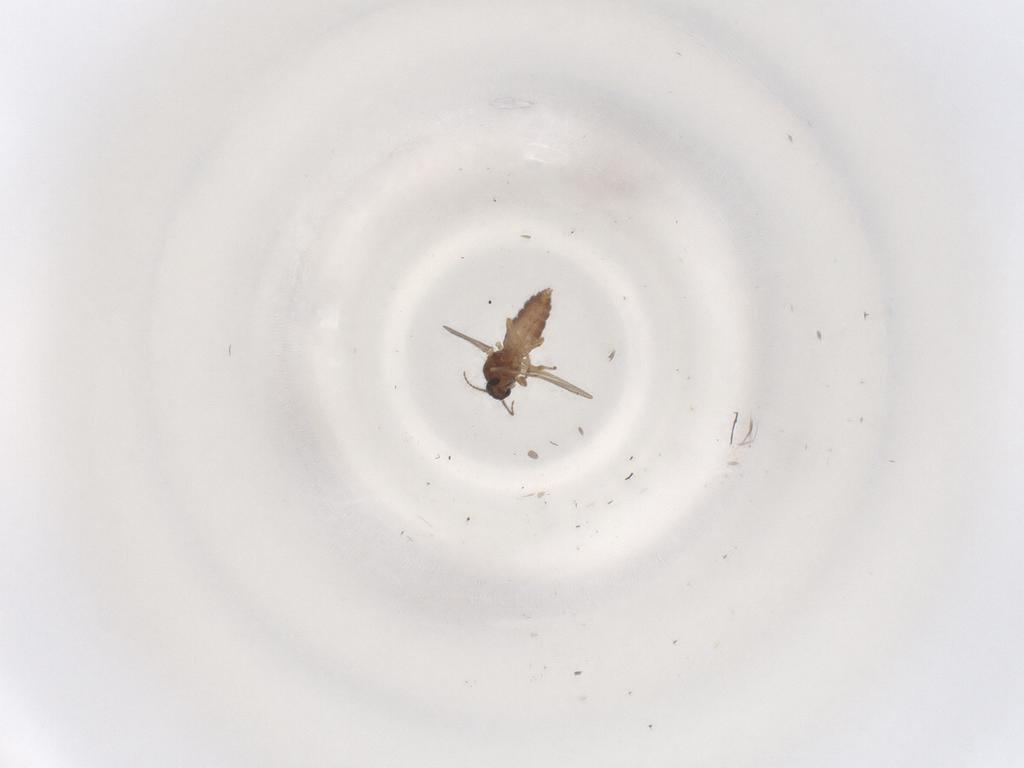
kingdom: Animalia
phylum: Arthropoda
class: Insecta
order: Diptera
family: Ceratopogonidae
